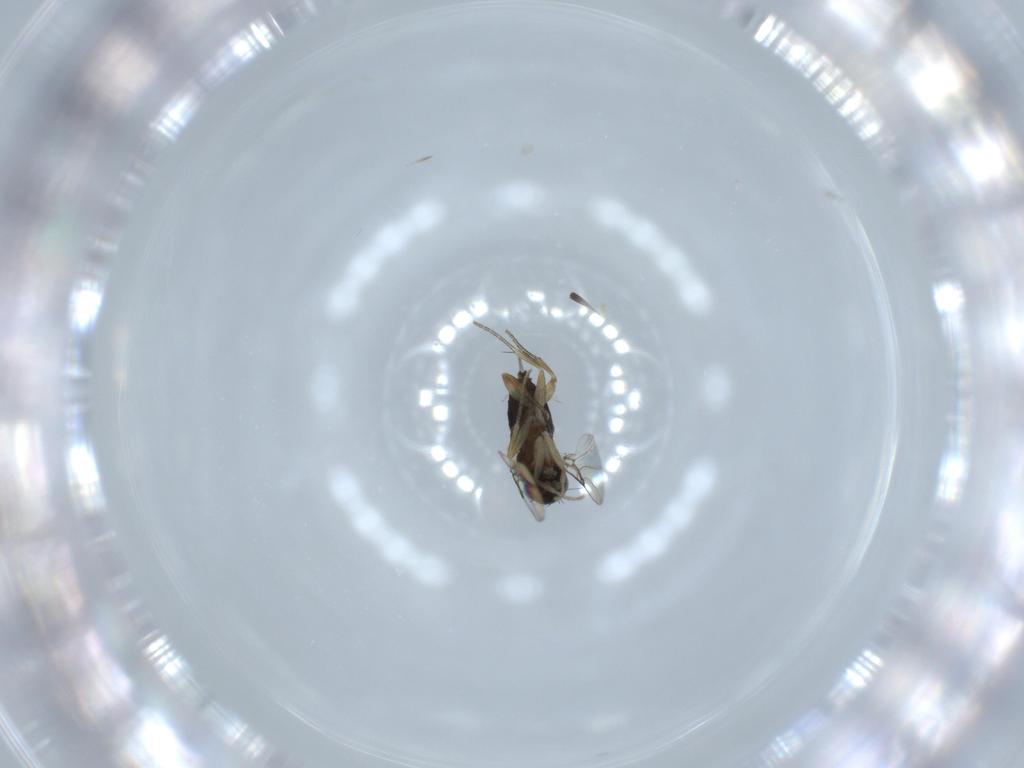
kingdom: Animalia
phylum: Arthropoda
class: Insecta
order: Diptera
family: Phoridae
